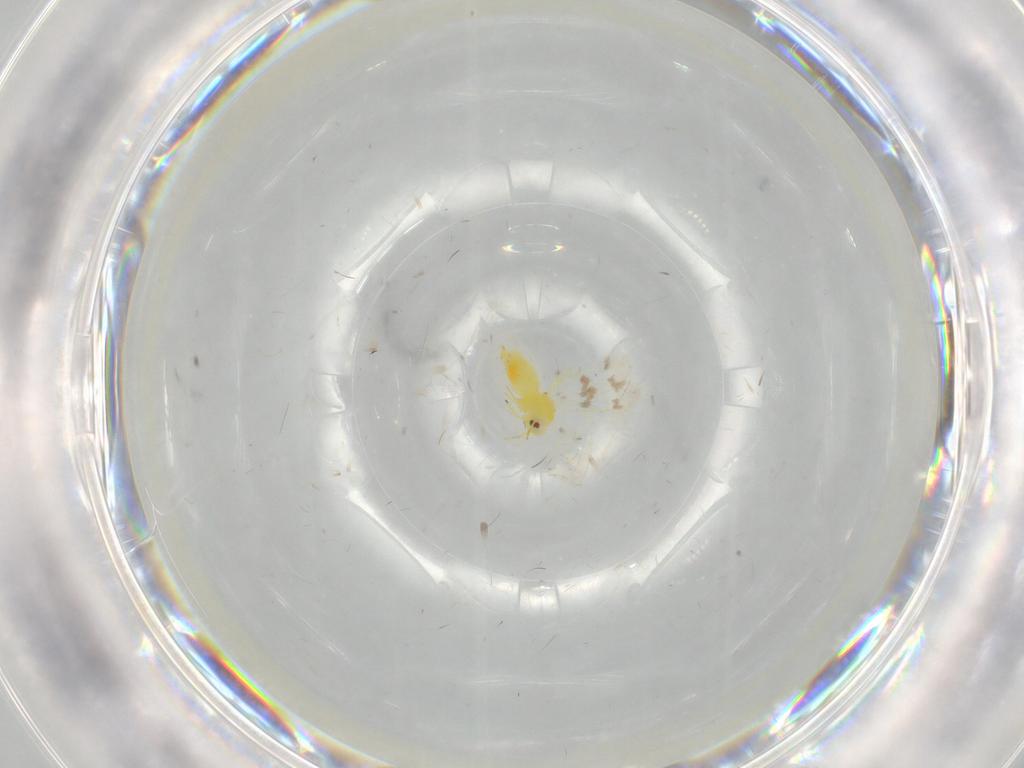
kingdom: Animalia
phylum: Arthropoda
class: Insecta
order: Hemiptera
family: Aleyrodidae
